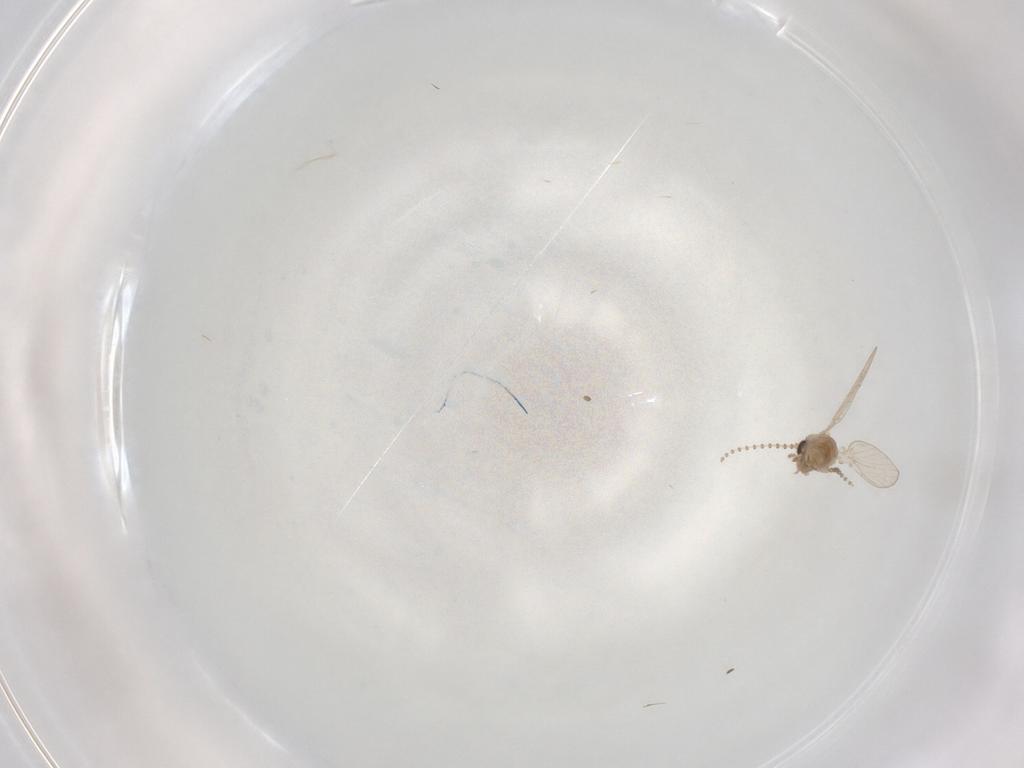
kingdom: Animalia
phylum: Arthropoda
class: Insecta
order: Diptera
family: Psychodidae
